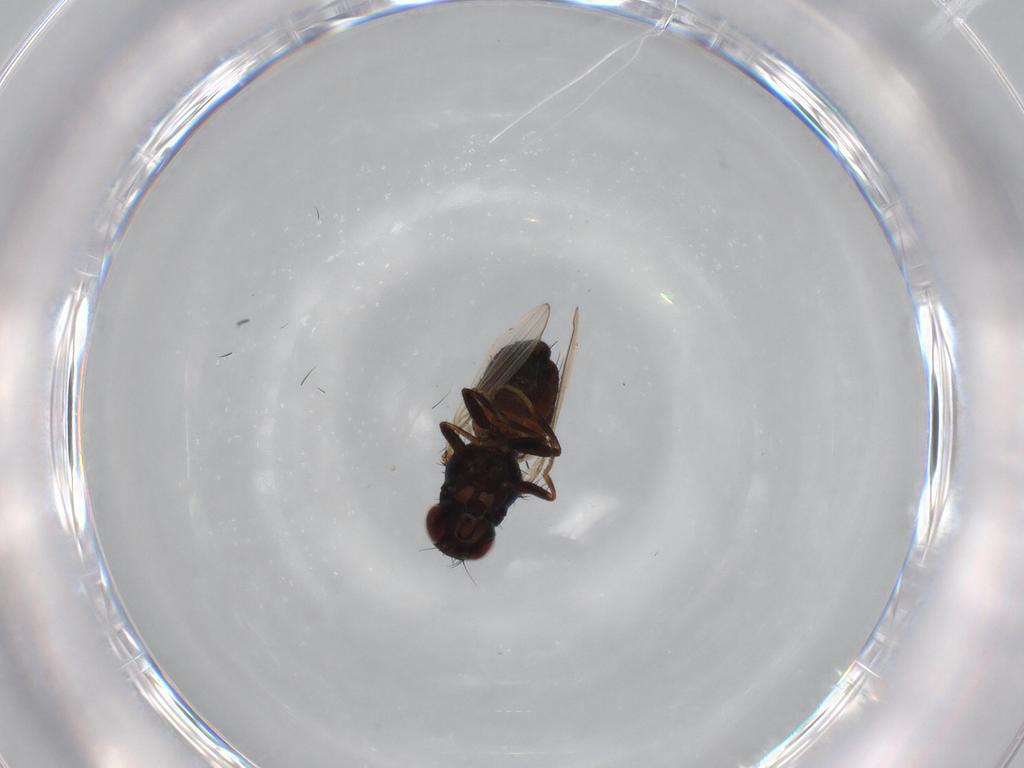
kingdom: Animalia
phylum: Arthropoda
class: Insecta
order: Diptera
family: Carnidae
